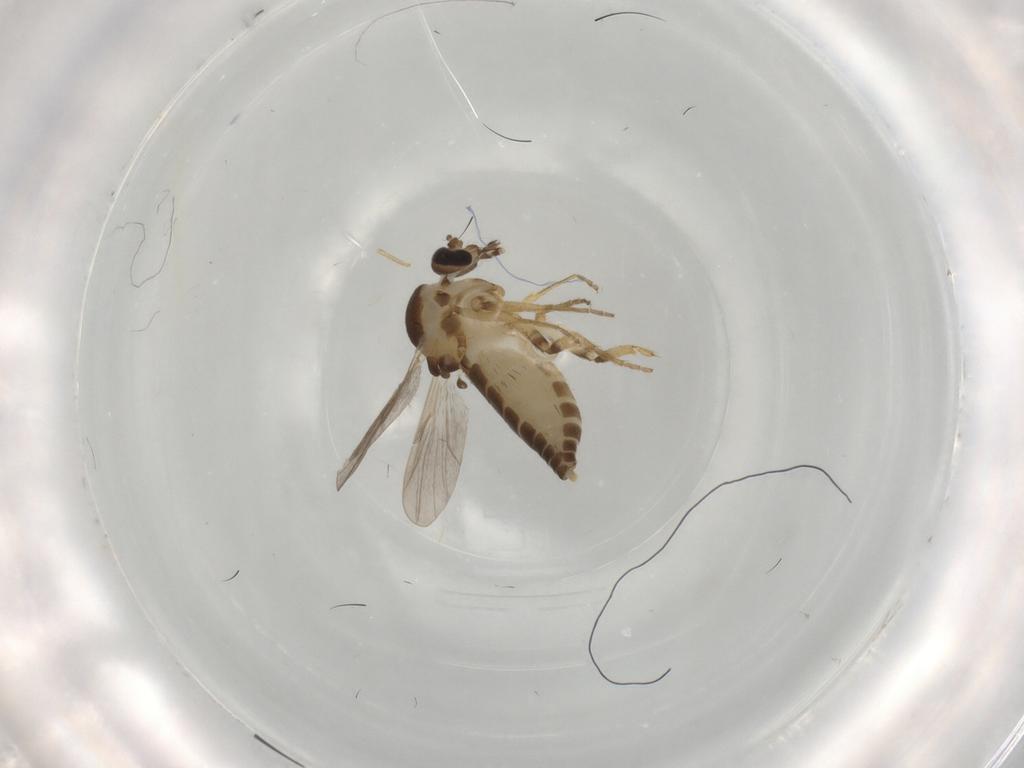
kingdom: Animalia
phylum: Arthropoda
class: Insecta
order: Diptera
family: Ceratopogonidae
